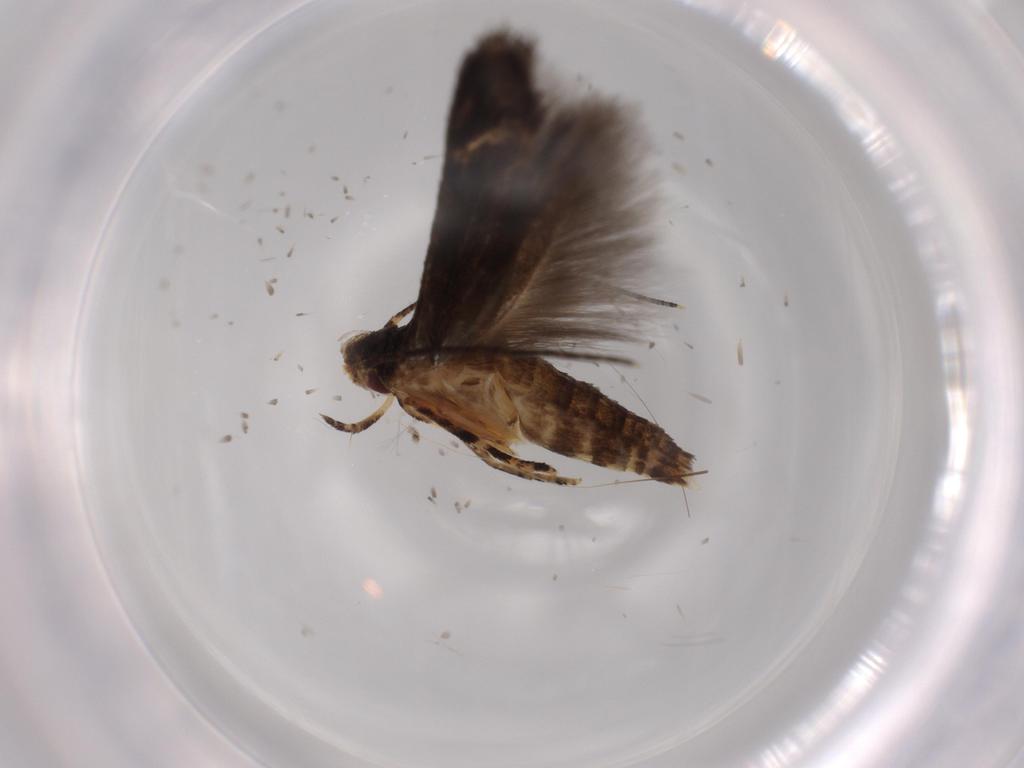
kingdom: Animalia
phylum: Arthropoda
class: Insecta
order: Lepidoptera
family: Momphidae
